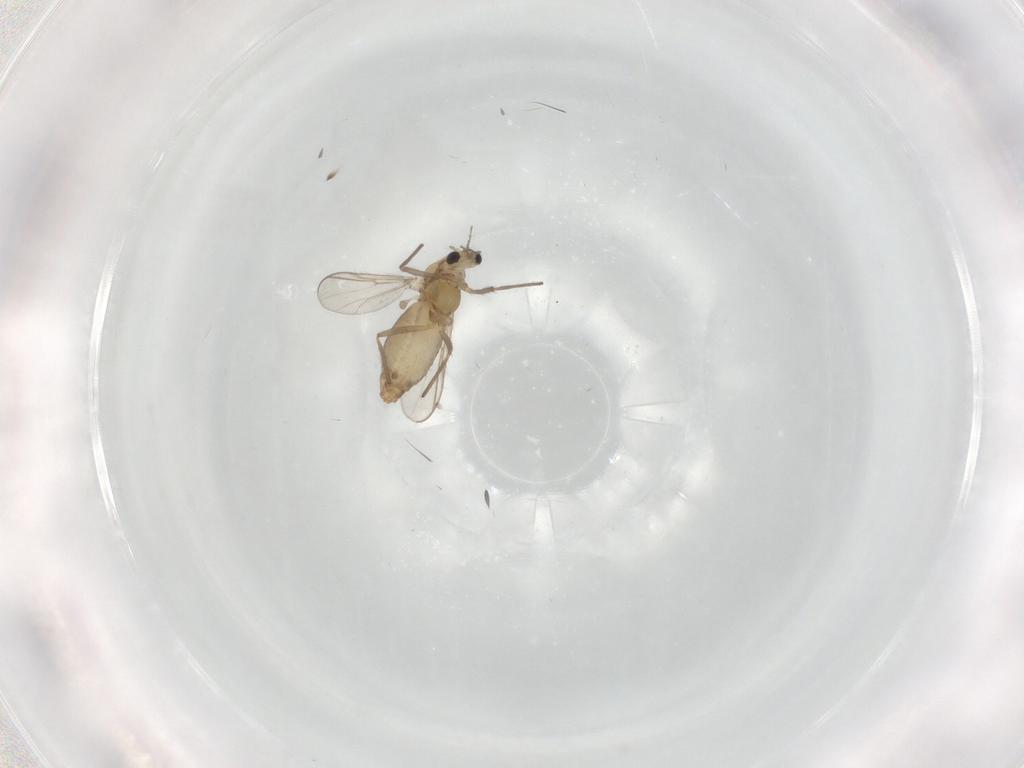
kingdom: Animalia
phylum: Arthropoda
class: Insecta
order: Diptera
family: Chironomidae
